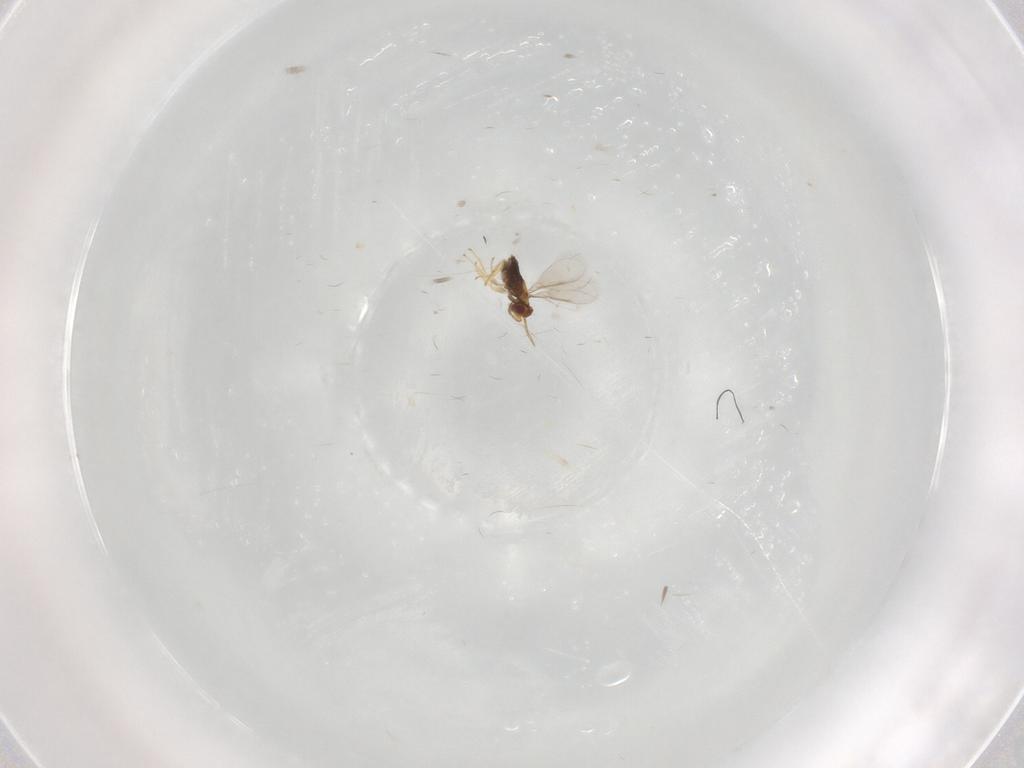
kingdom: Animalia
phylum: Arthropoda
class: Insecta
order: Hymenoptera
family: Aphelinidae
